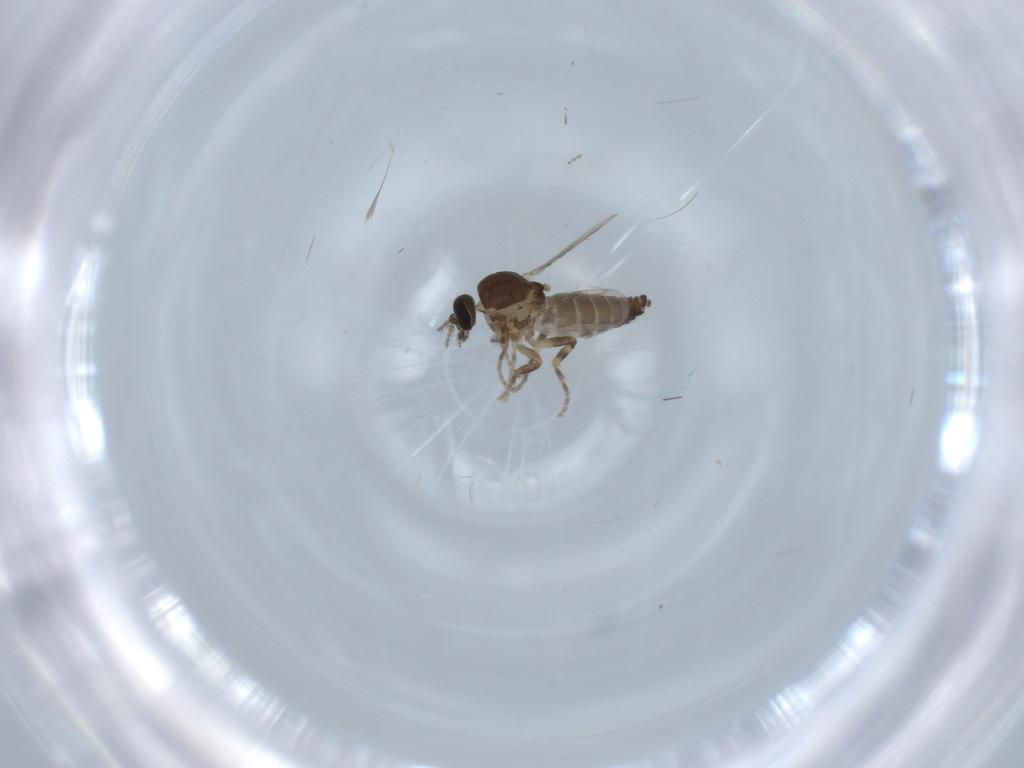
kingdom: Animalia
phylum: Arthropoda
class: Insecta
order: Diptera
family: Ceratopogonidae
